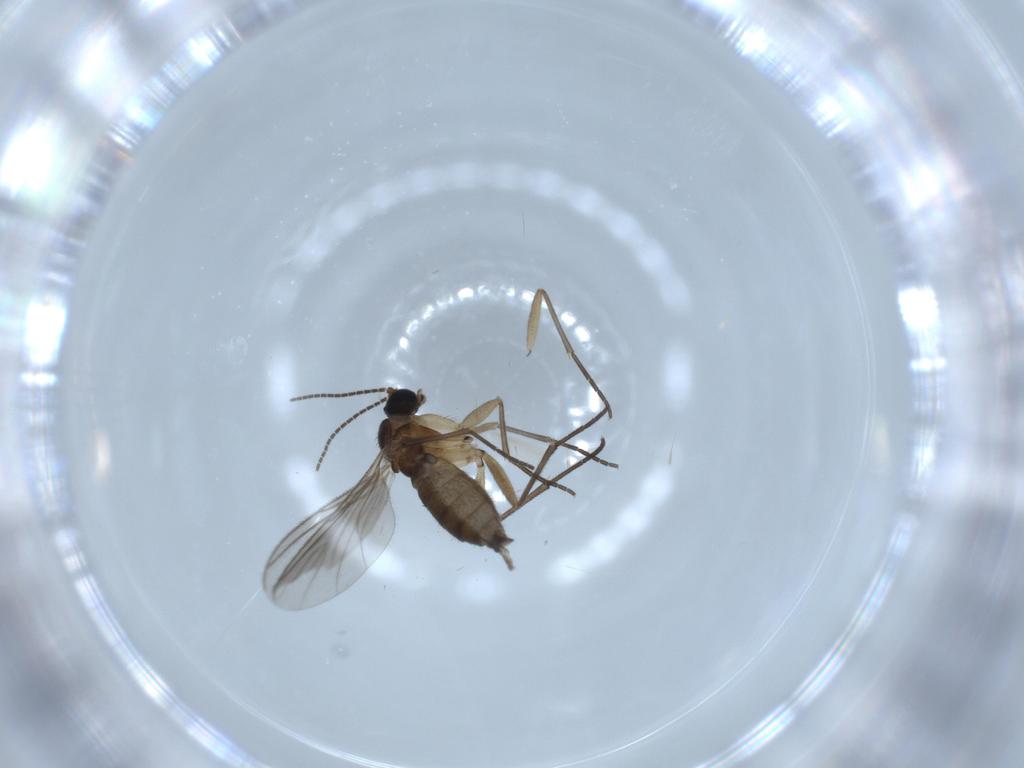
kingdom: Animalia
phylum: Arthropoda
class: Insecta
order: Diptera
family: Sciaridae
